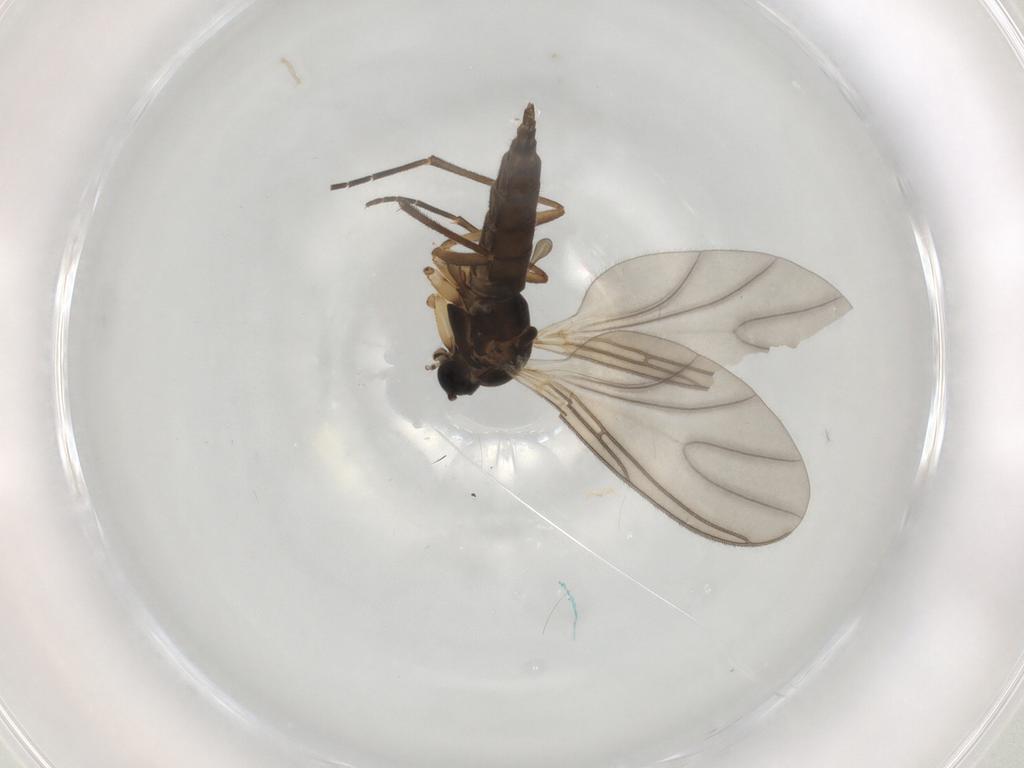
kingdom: Animalia
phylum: Arthropoda
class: Insecta
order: Diptera
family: Sciaridae
